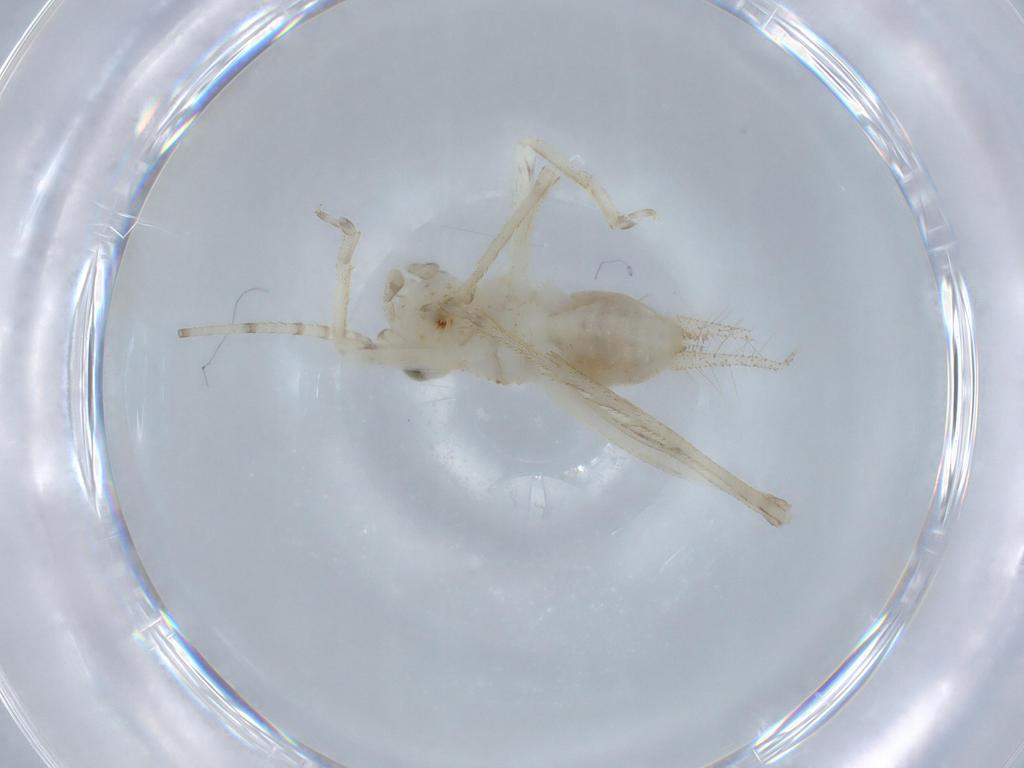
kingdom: Animalia
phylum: Arthropoda
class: Insecta
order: Orthoptera
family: Trigonidiidae
